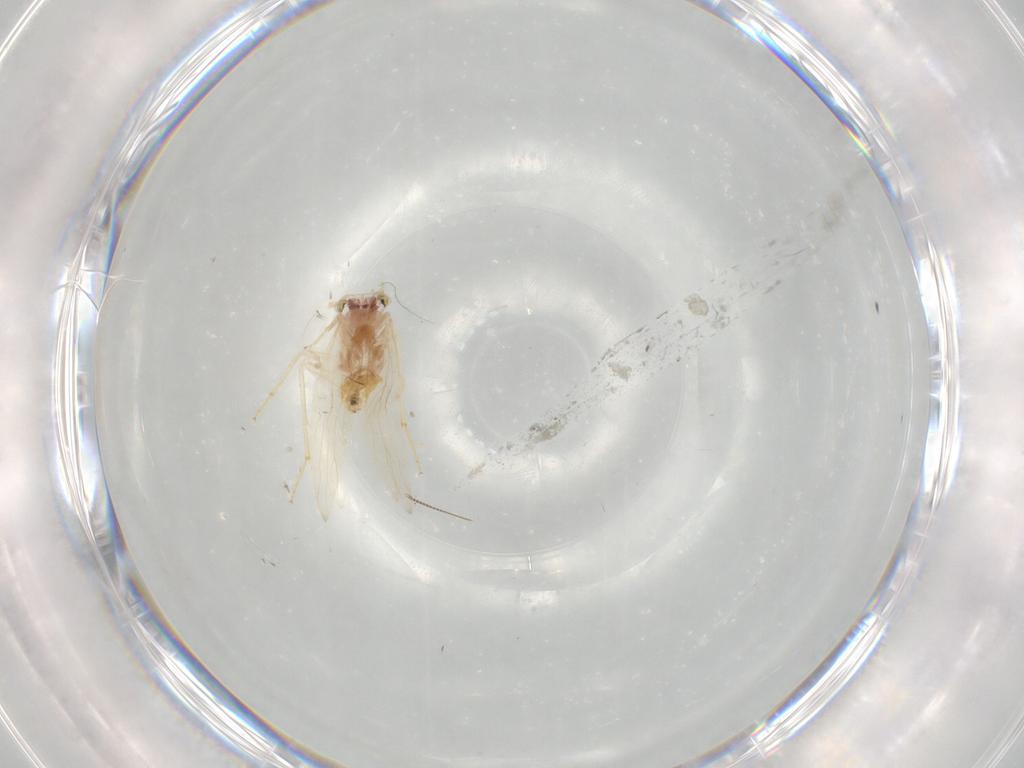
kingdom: Animalia
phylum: Arthropoda
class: Insecta
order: Psocodea
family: Lepidopsocidae
